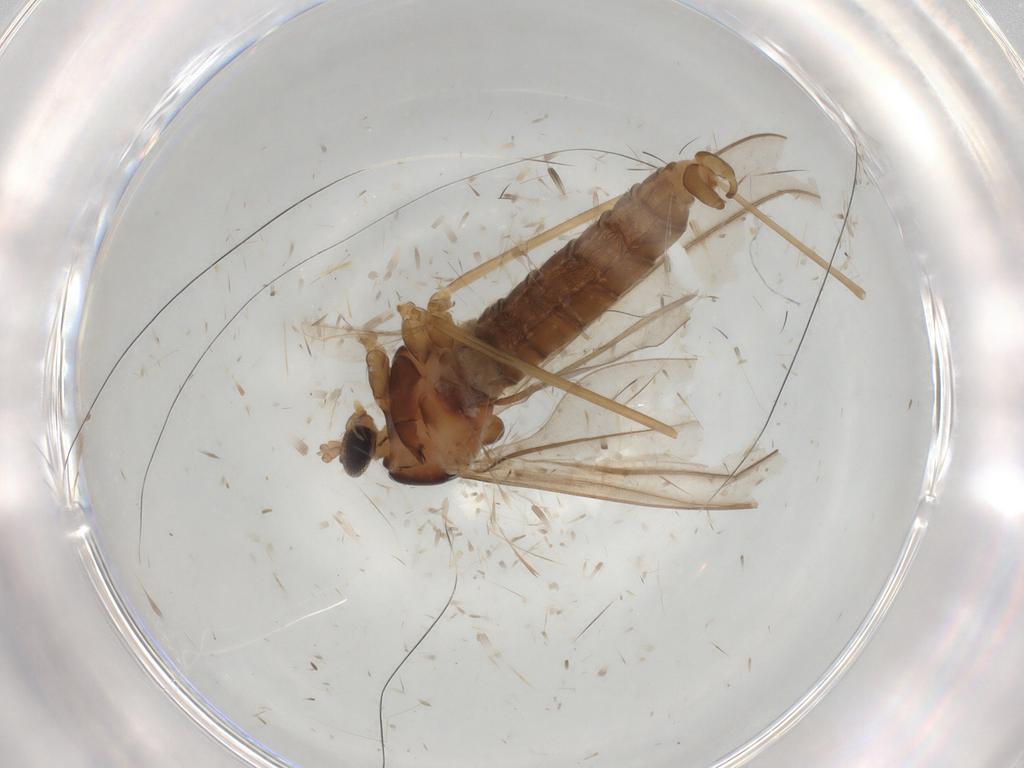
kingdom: Animalia
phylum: Arthropoda
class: Insecta
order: Diptera
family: Cecidomyiidae
